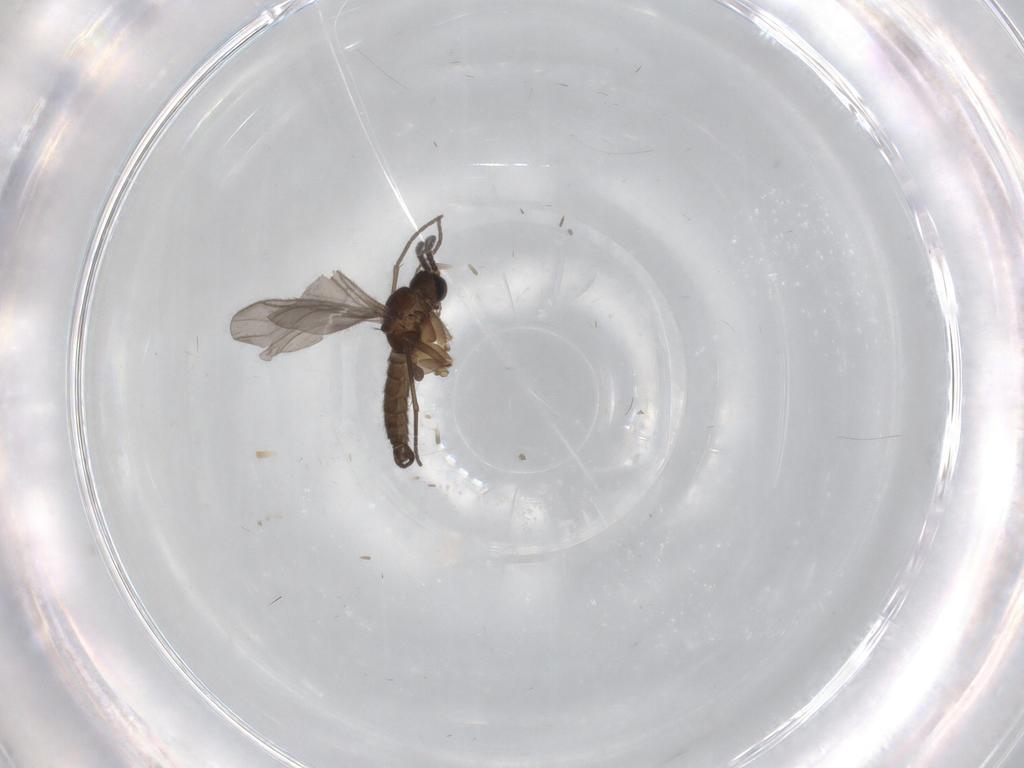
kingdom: Animalia
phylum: Arthropoda
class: Insecta
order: Diptera
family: Sciaridae
